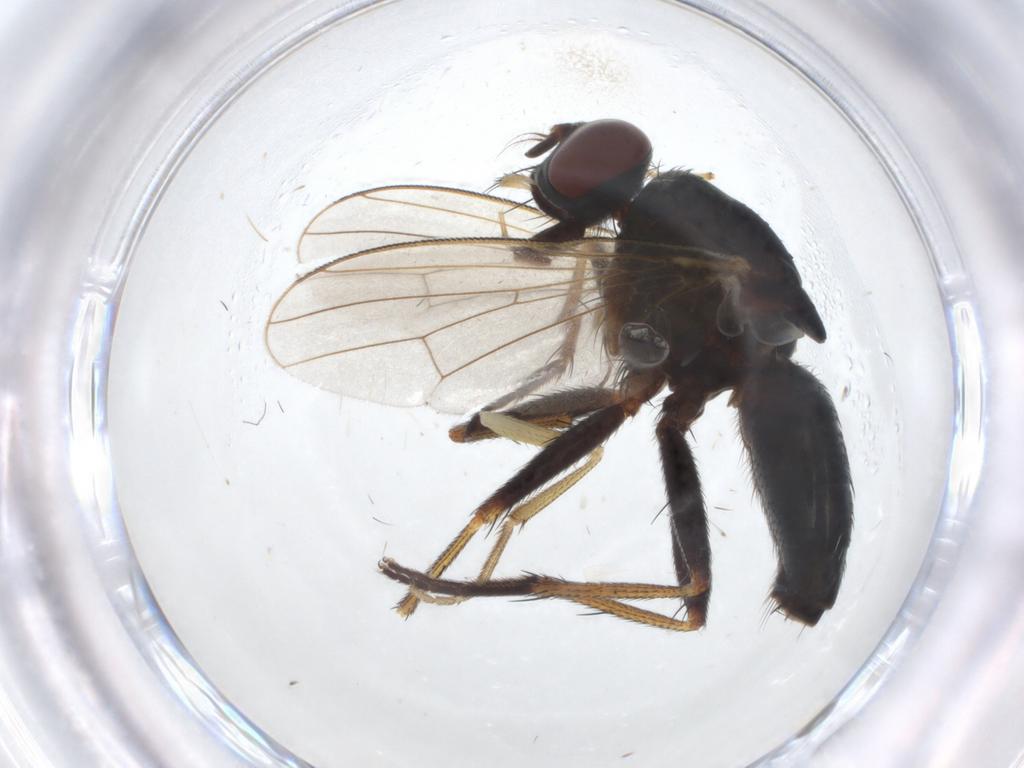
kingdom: Animalia
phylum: Arthropoda
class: Insecta
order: Diptera
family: Muscidae
